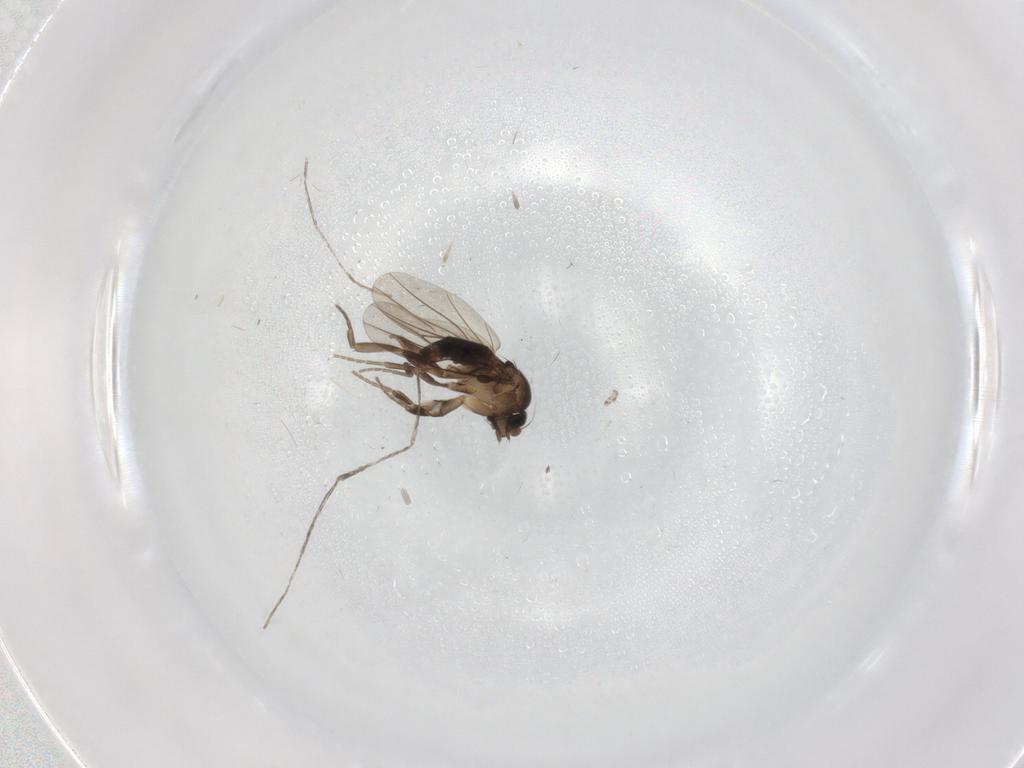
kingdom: Animalia
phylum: Arthropoda
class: Insecta
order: Diptera
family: Phoridae
